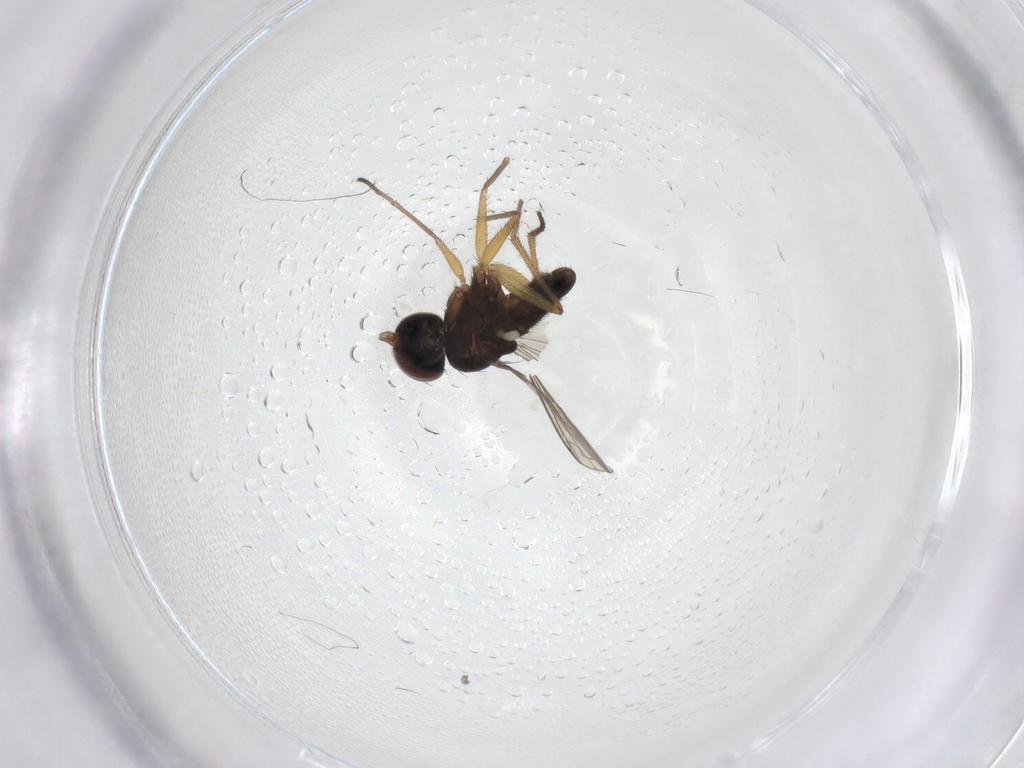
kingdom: Animalia
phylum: Arthropoda
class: Insecta
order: Diptera
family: Dolichopodidae
